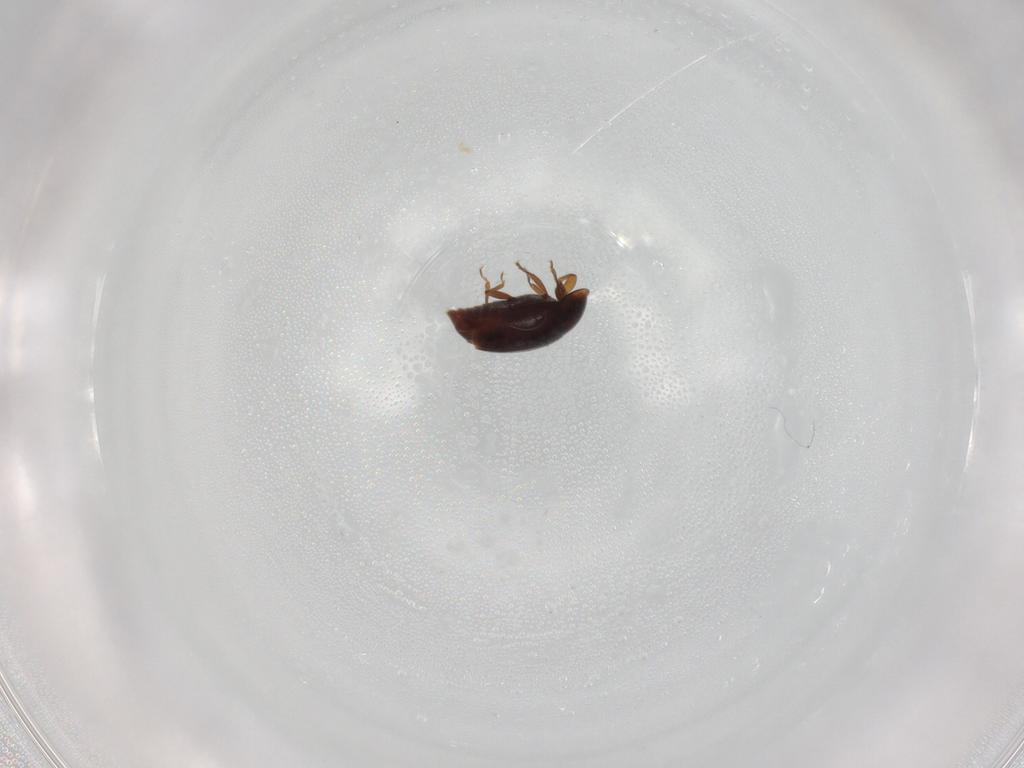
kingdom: Animalia
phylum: Arthropoda
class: Insecta
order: Coleoptera
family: Corylophidae
